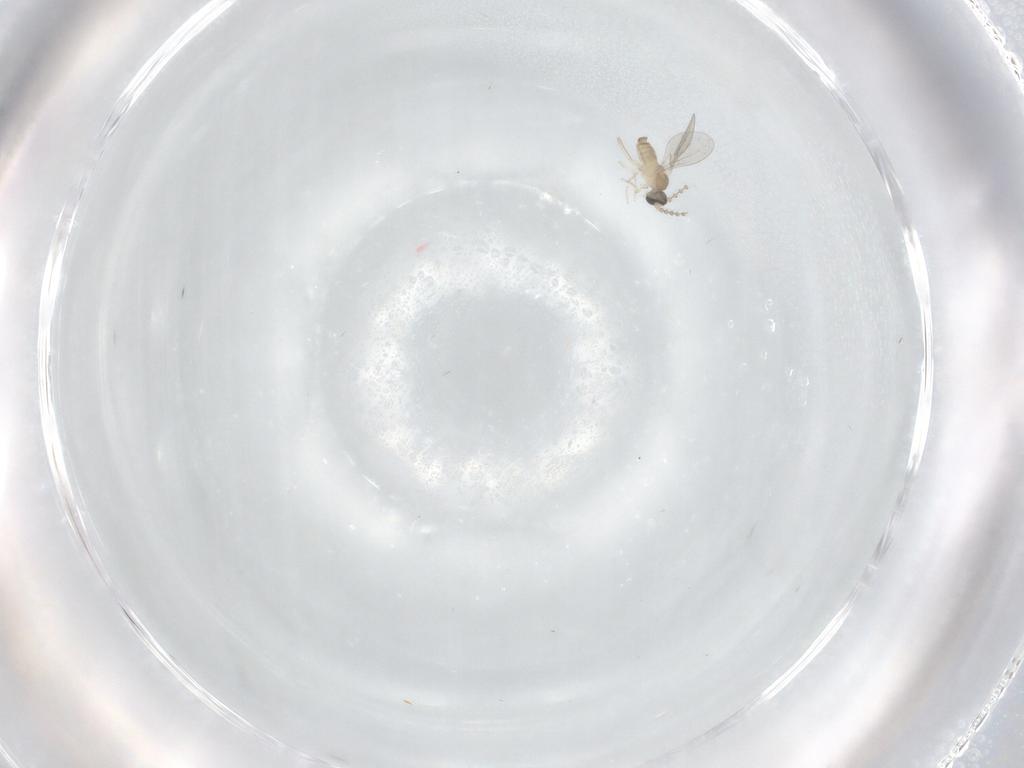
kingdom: Animalia
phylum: Arthropoda
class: Insecta
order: Diptera
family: Cecidomyiidae
